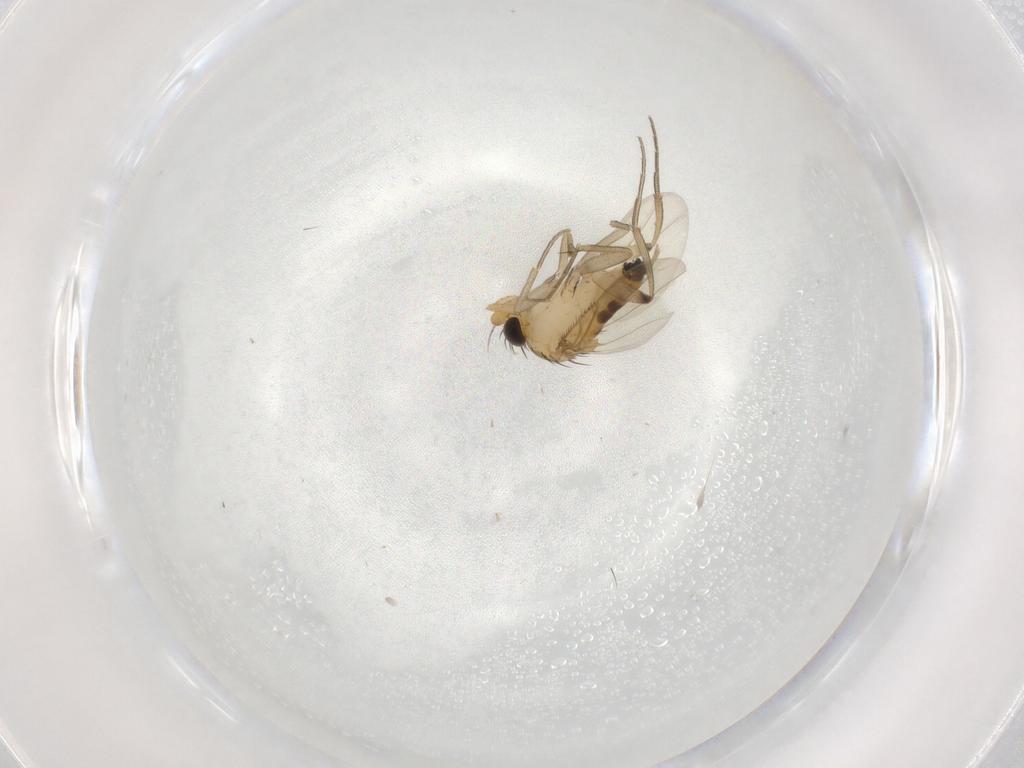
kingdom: Animalia
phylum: Arthropoda
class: Insecta
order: Diptera
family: Phoridae
